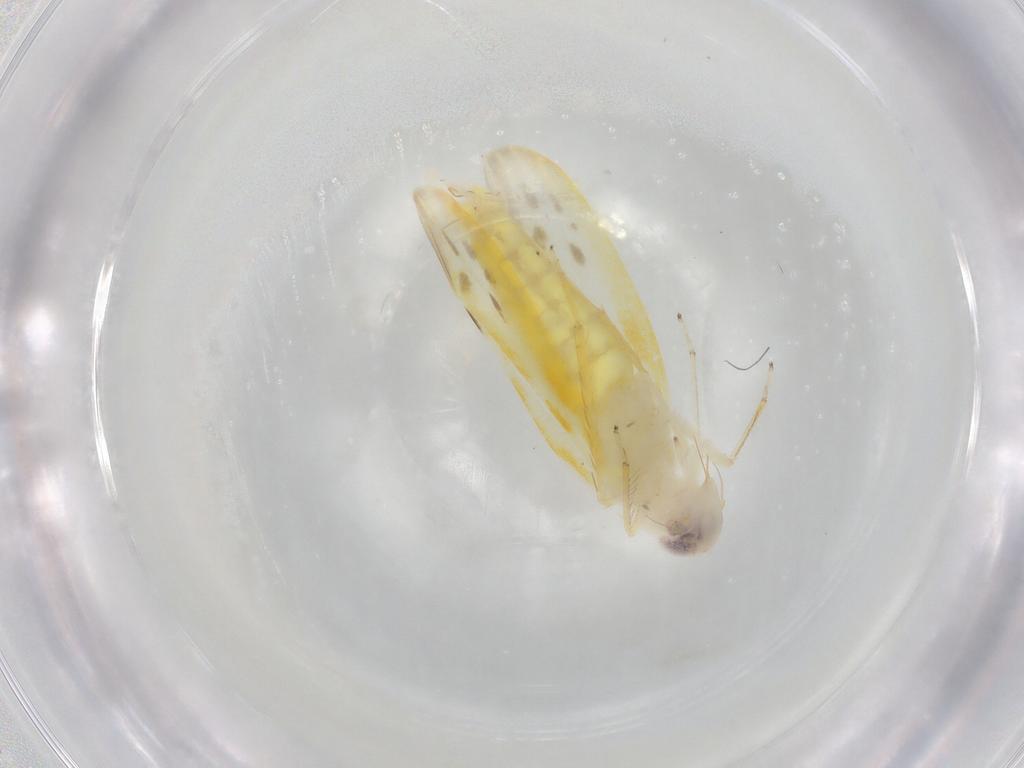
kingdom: Animalia
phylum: Arthropoda
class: Insecta
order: Hemiptera
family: Cicadellidae
